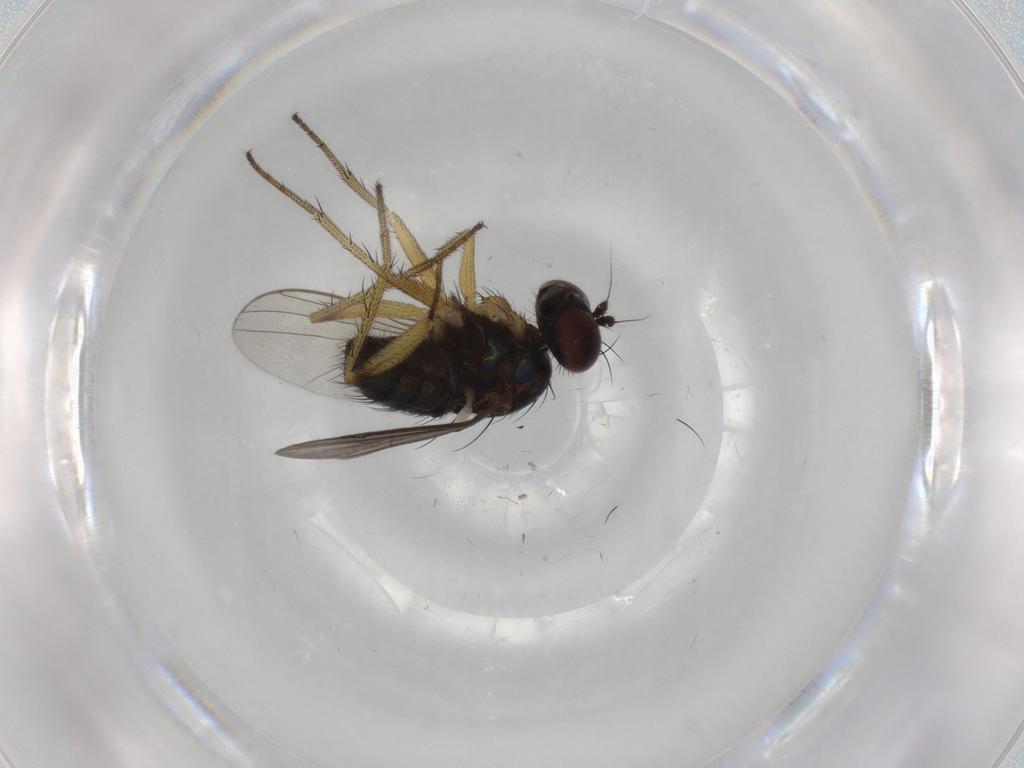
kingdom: Animalia
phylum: Arthropoda
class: Insecta
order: Diptera
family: Dolichopodidae
